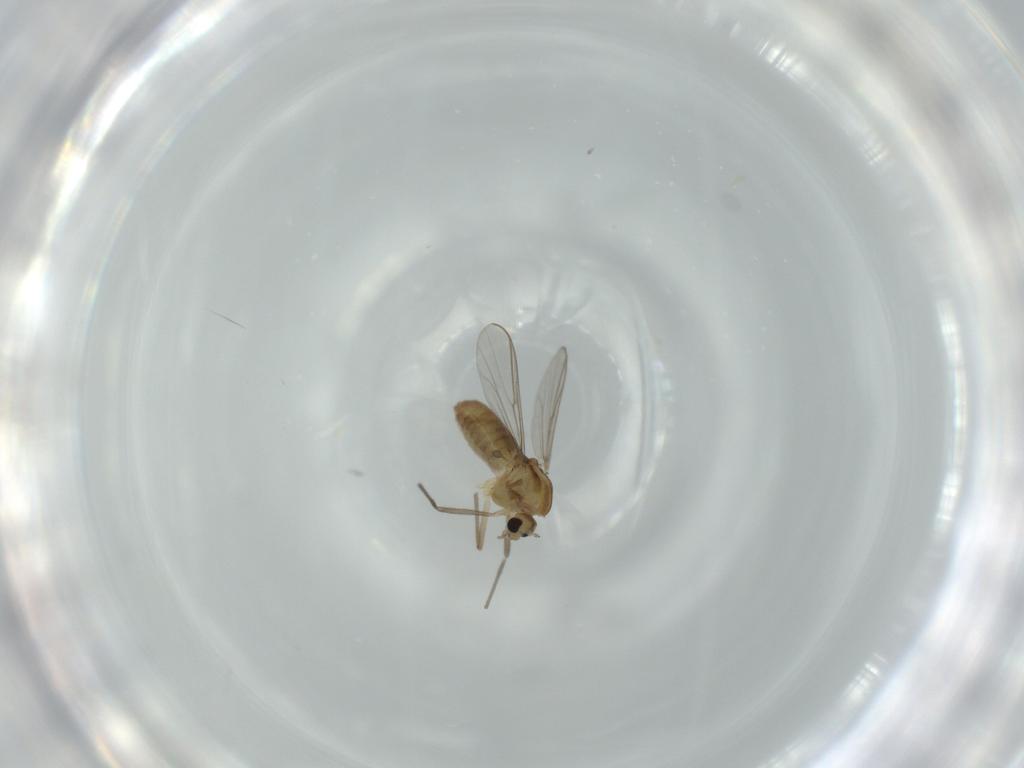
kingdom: Animalia
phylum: Arthropoda
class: Insecta
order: Diptera
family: Chironomidae
